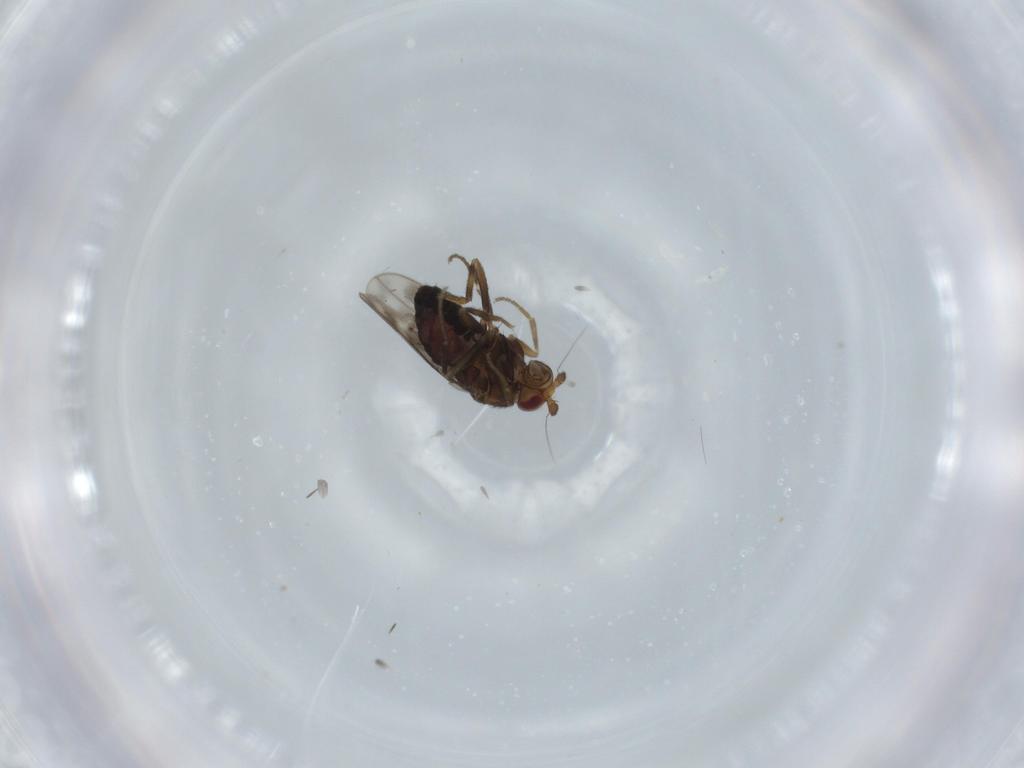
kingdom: Animalia
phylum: Arthropoda
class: Insecta
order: Diptera
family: Sphaeroceridae
